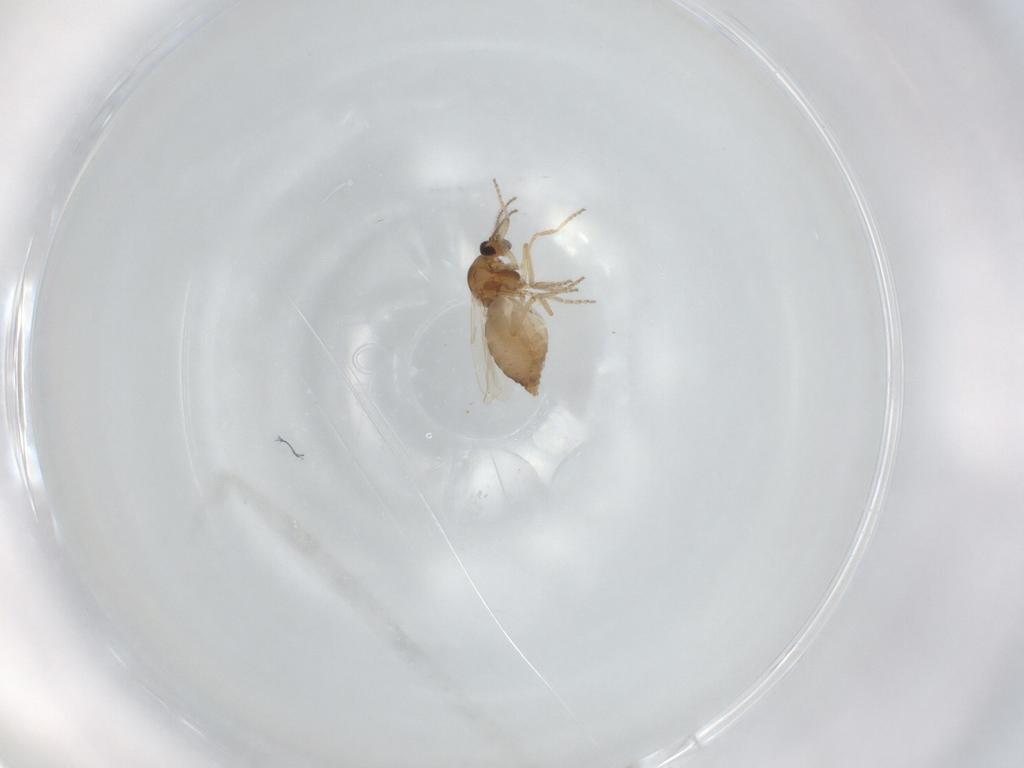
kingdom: Animalia
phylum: Arthropoda
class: Insecta
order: Diptera
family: Ceratopogonidae
